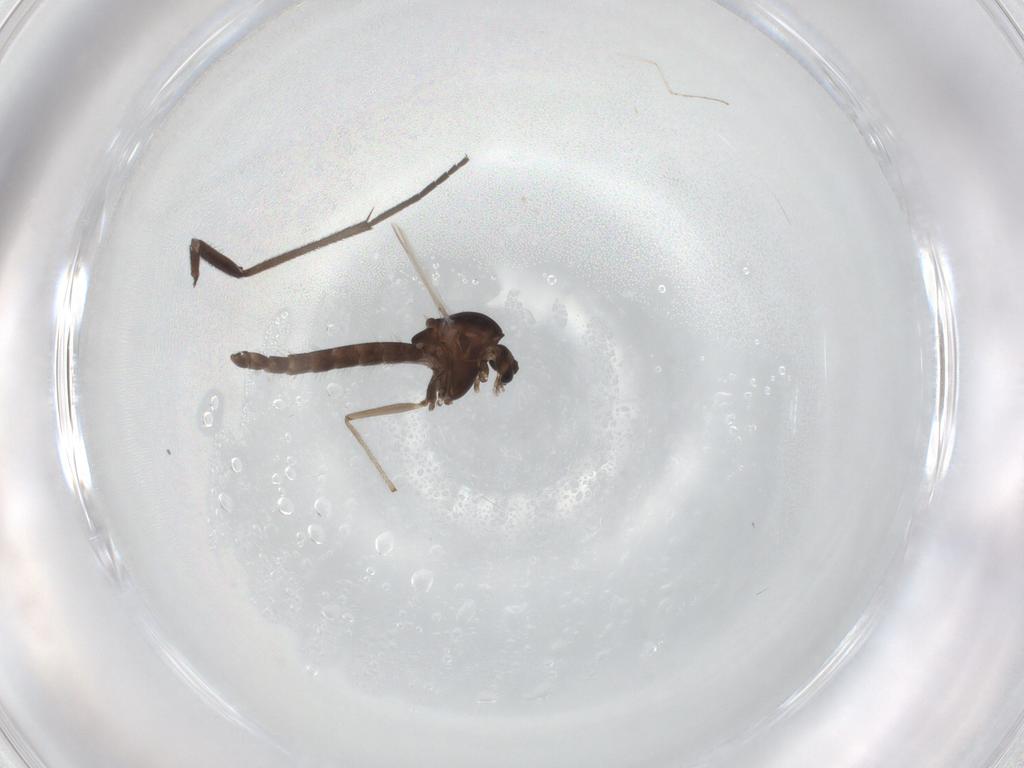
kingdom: Animalia
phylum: Arthropoda
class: Insecta
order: Diptera
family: Chironomidae
